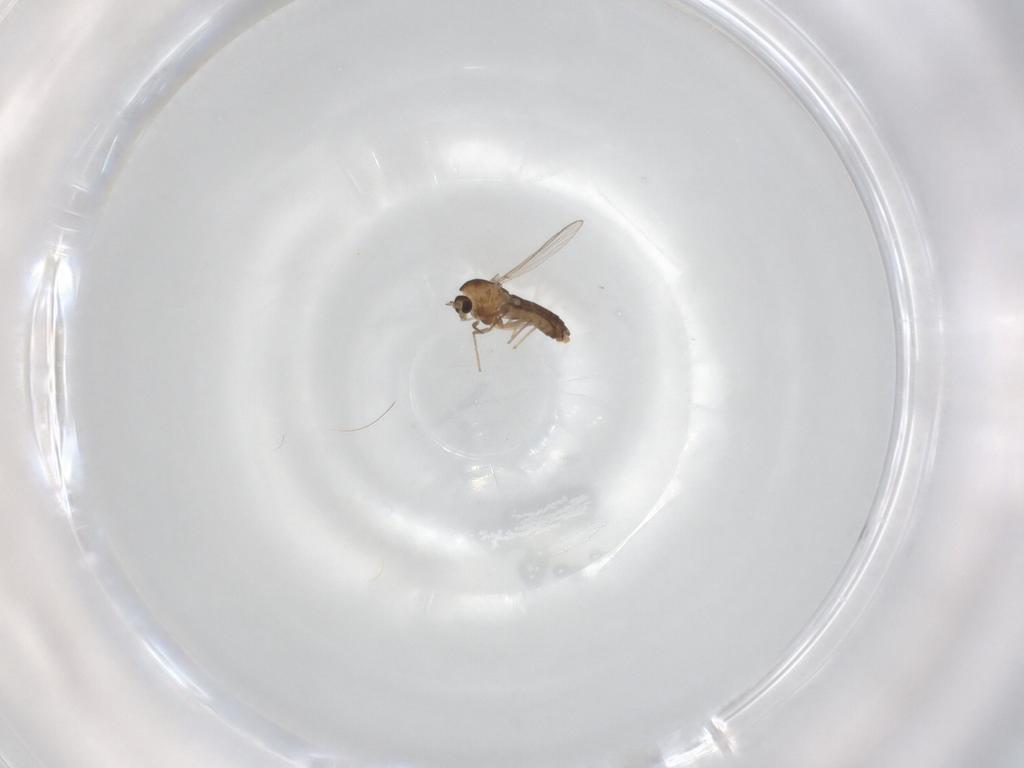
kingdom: Animalia
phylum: Arthropoda
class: Insecta
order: Diptera
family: Chironomidae
